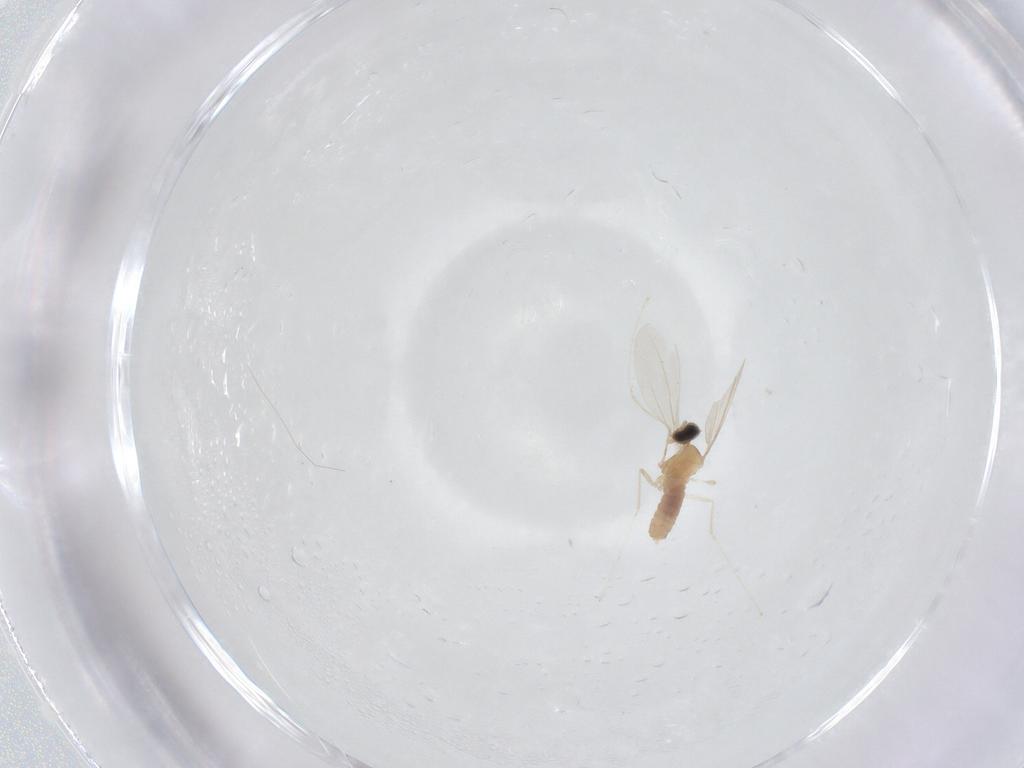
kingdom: Animalia
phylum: Arthropoda
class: Insecta
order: Diptera
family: Cecidomyiidae
